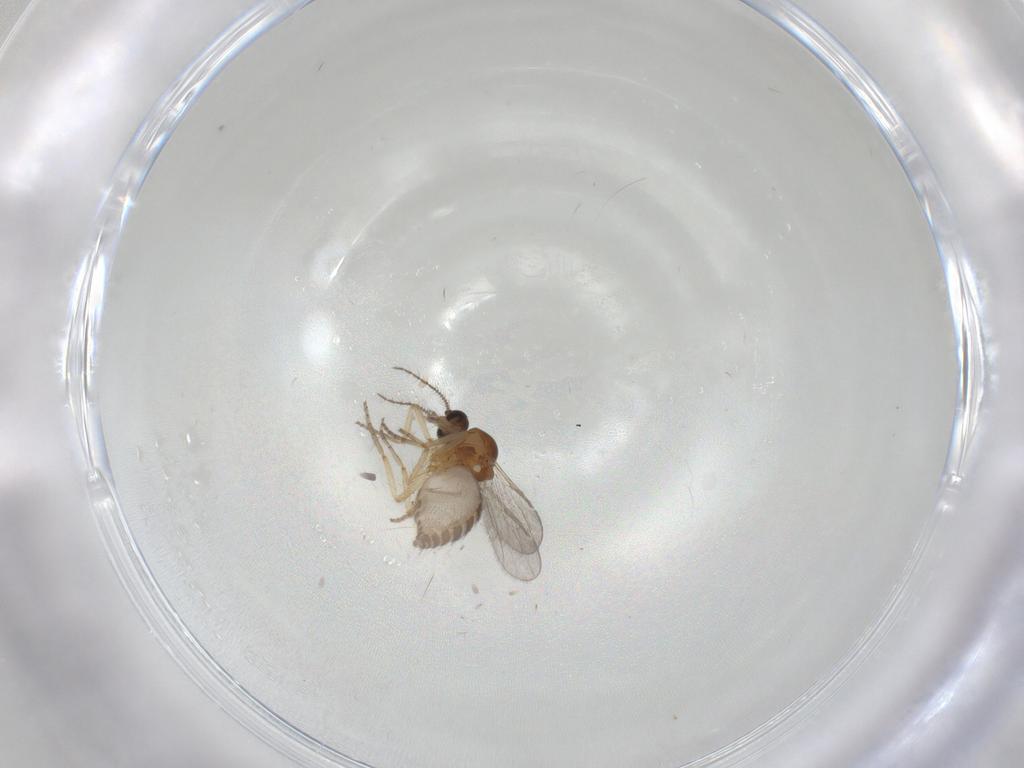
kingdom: Animalia
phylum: Arthropoda
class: Insecta
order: Diptera
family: Ceratopogonidae
